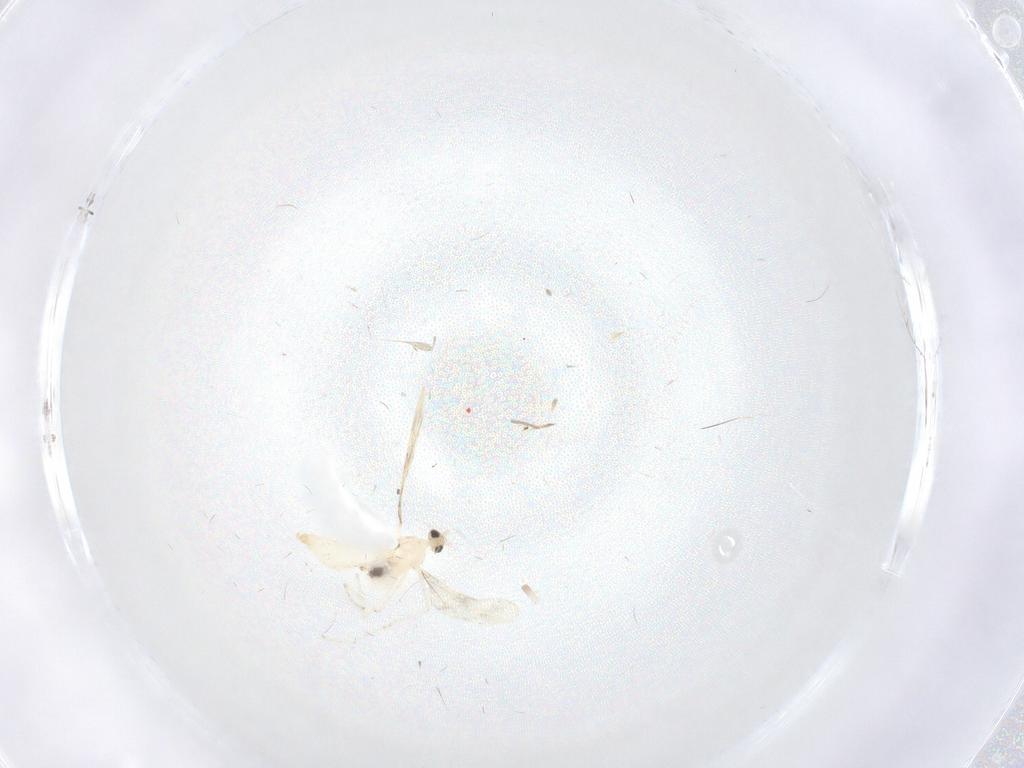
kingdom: Animalia
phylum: Arthropoda
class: Insecta
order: Diptera
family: Cecidomyiidae
